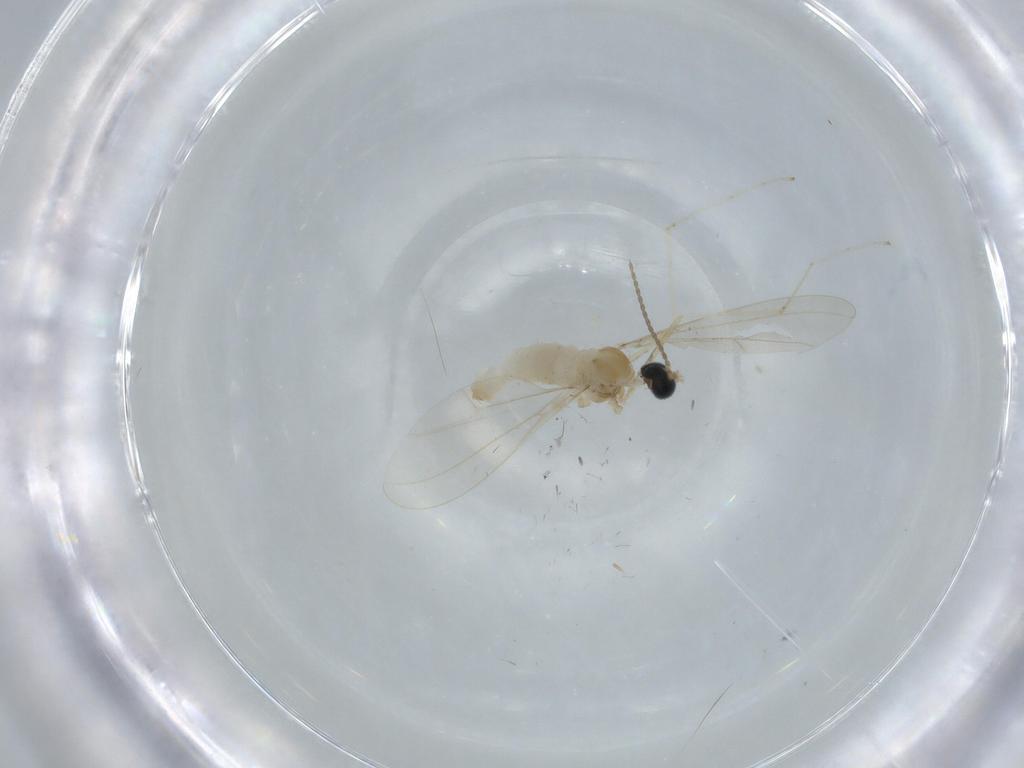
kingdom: Animalia
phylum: Arthropoda
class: Insecta
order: Diptera
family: Cecidomyiidae
